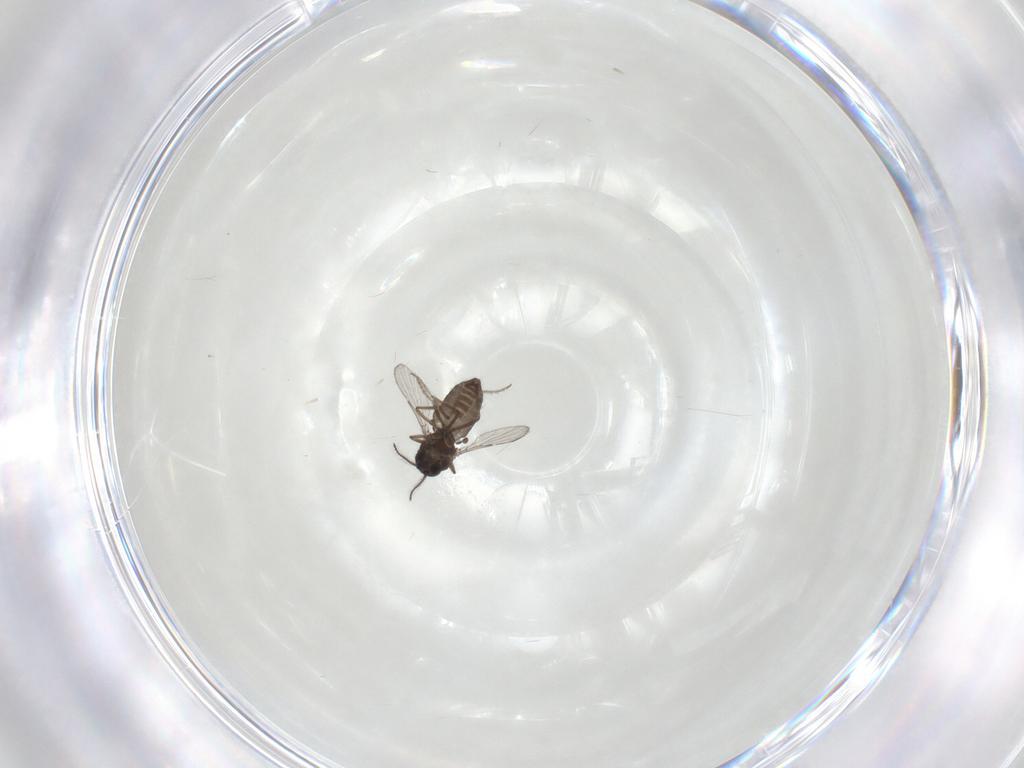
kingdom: Animalia
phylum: Arthropoda
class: Insecta
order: Diptera
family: Ceratopogonidae
